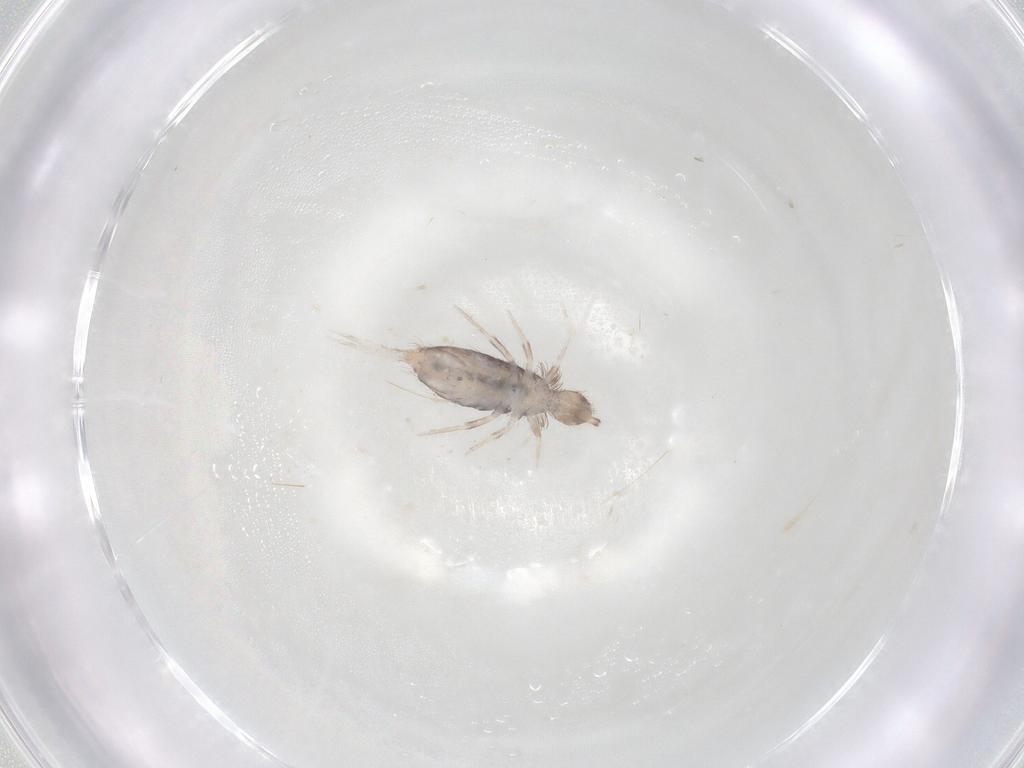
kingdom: Animalia
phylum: Arthropoda
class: Collembola
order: Poduromorpha
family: Hypogastruridae
